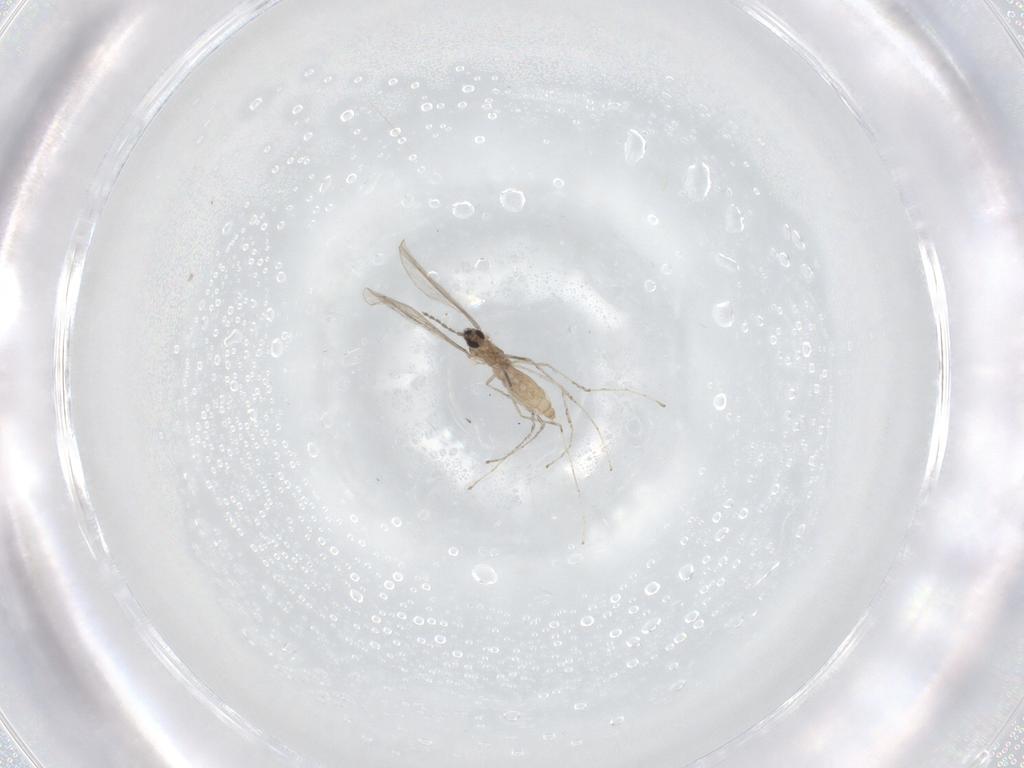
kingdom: Animalia
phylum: Arthropoda
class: Insecta
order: Diptera
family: Cecidomyiidae
